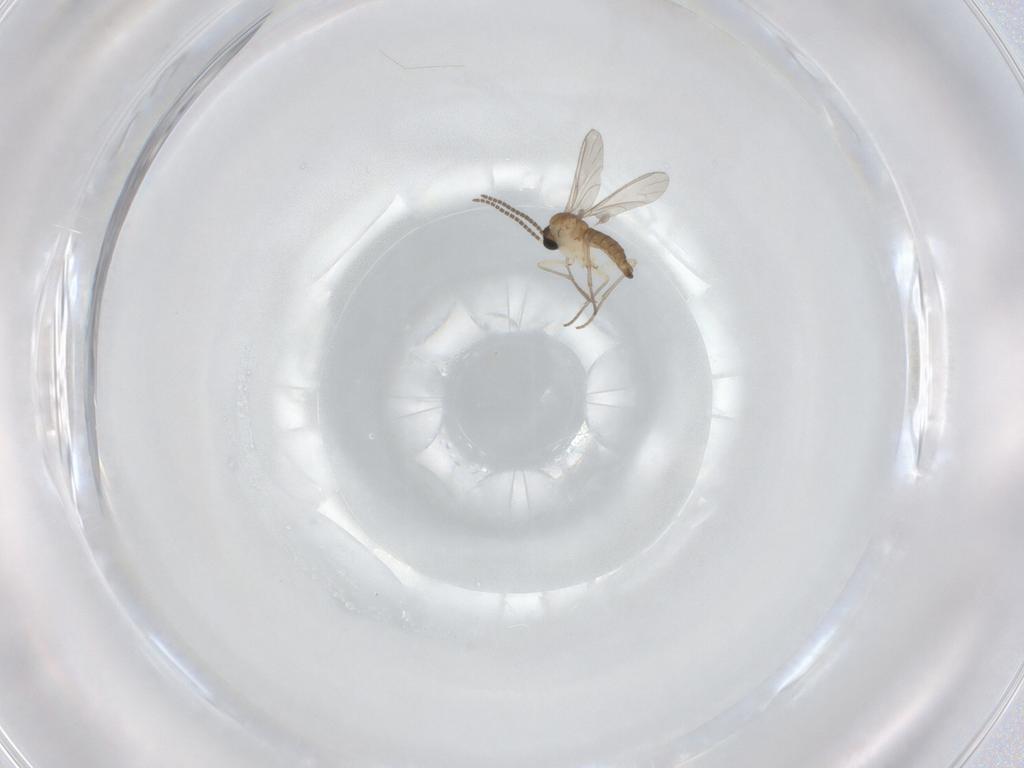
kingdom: Animalia
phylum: Arthropoda
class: Insecta
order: Diptera
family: Sciaridae
